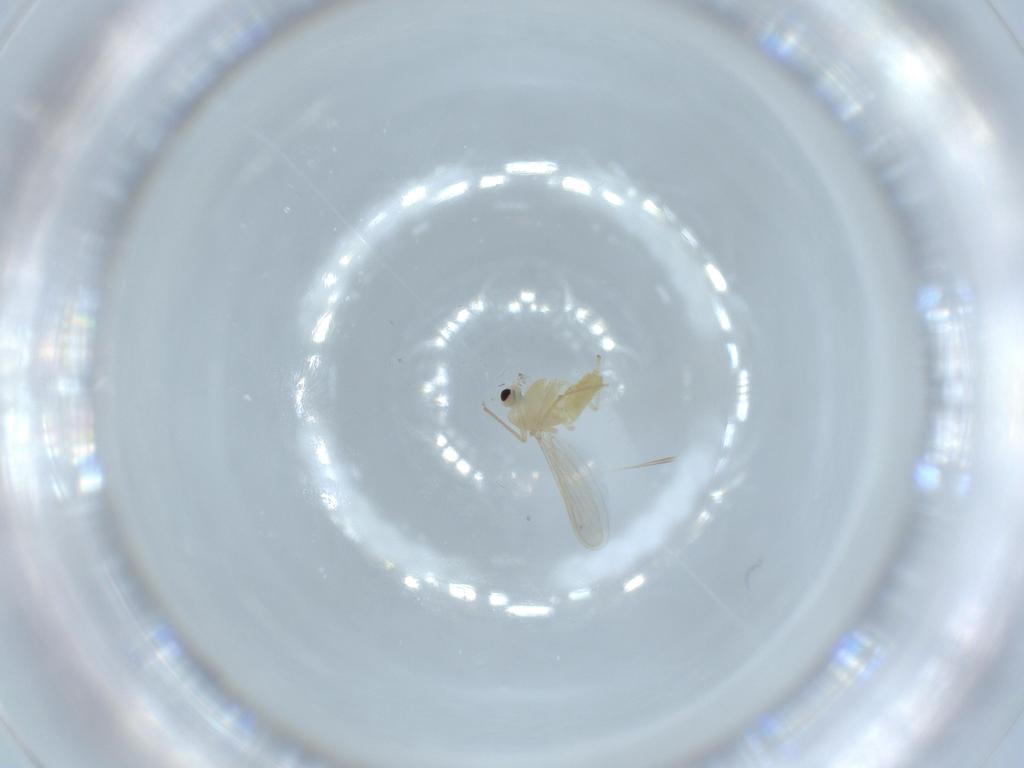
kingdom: Animalia
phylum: Arthropoda
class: Insecta
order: Diptera
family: Chironomidae
